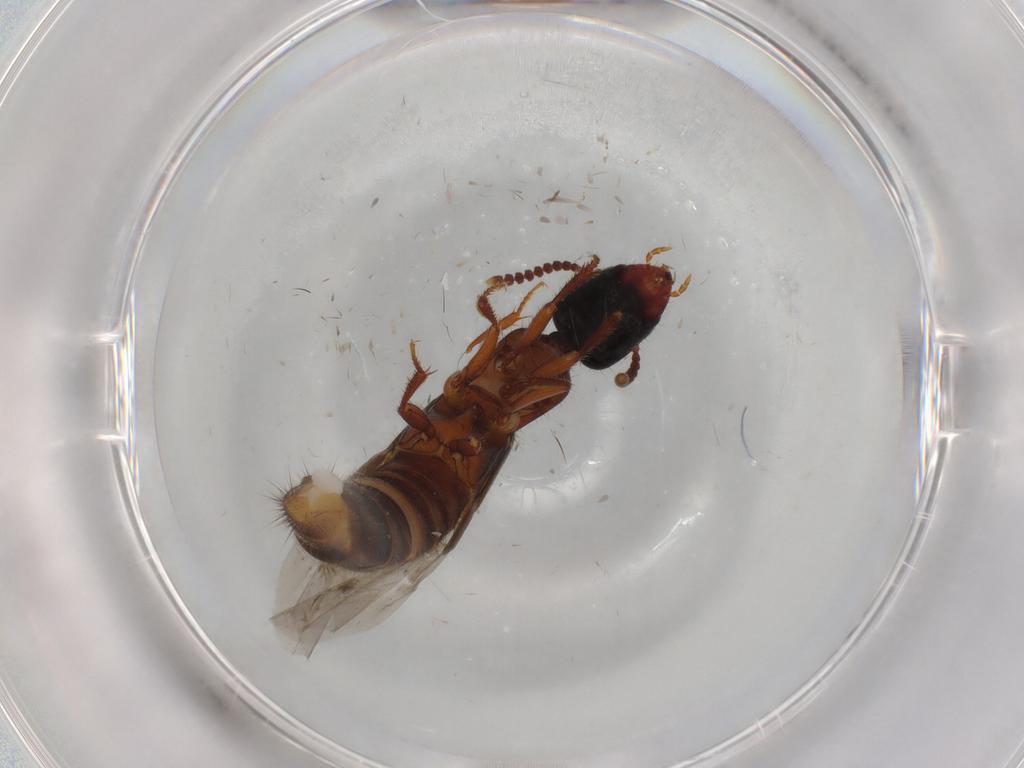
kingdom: Animalia
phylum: Arthropoda
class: Insecta
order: Coleoptera
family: Chrysomelidae
